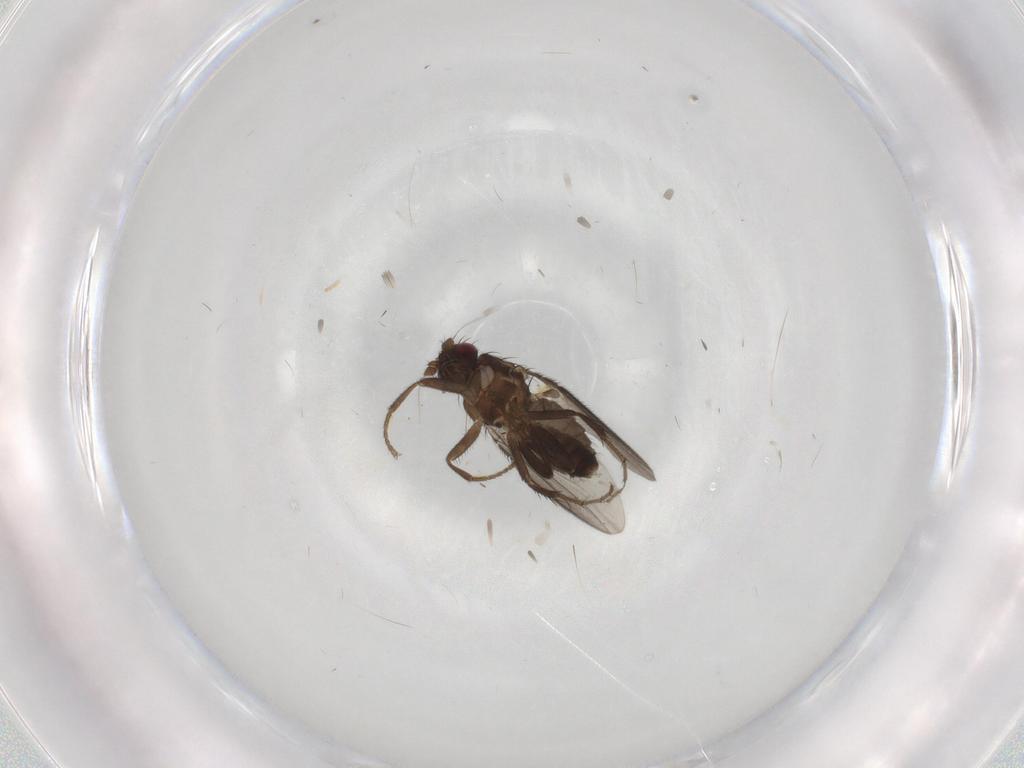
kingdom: Animalia
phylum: Arthropoda
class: Insecta
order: Diptera
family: Sphaeroceridae
